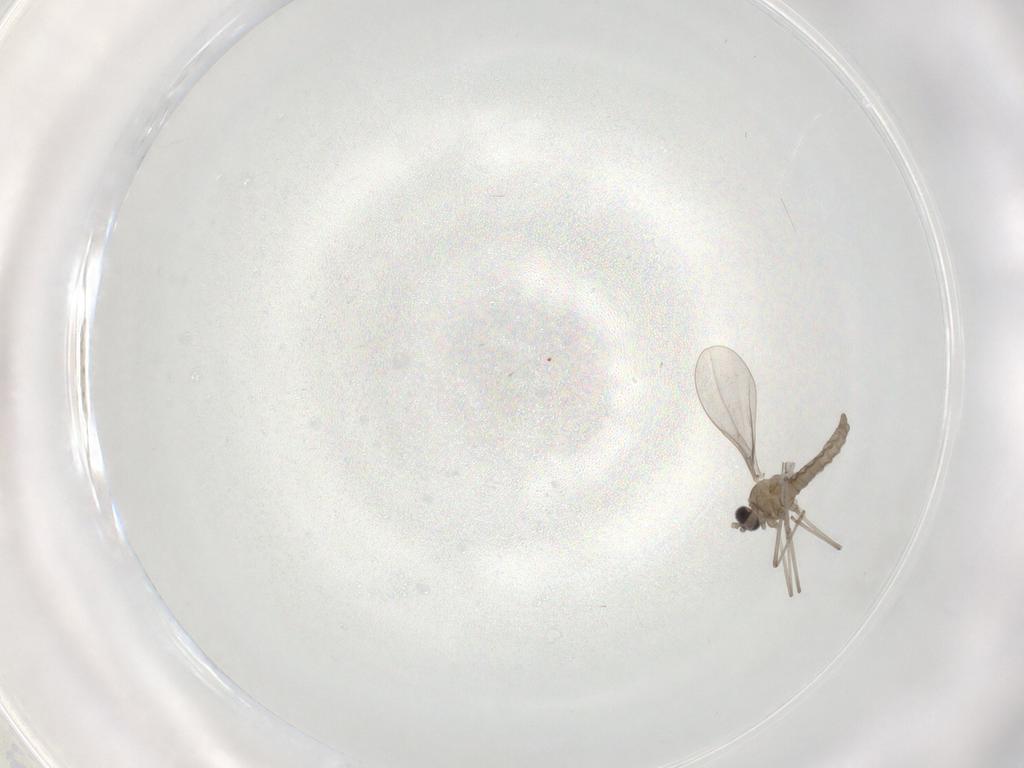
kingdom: Animalia
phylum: Arthropoda
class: Insecta
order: Diptera
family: Cecidomyiidae
